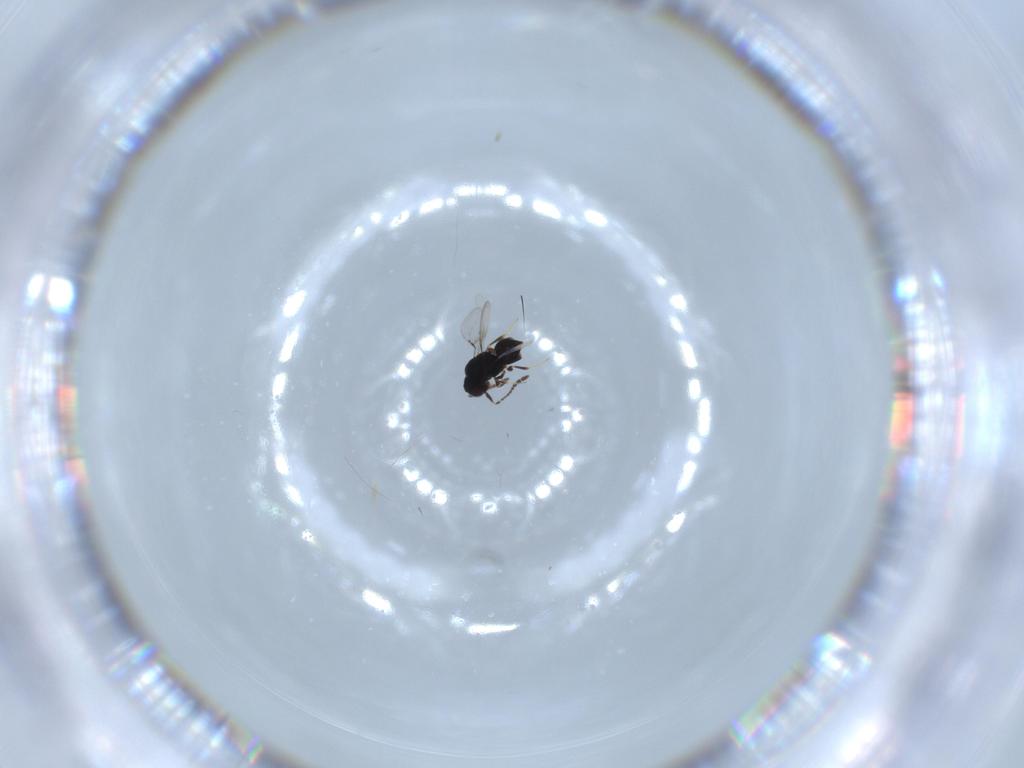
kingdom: Animalia
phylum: Arthropoda
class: Insecta
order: Hymenoptera
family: Ceraphronidae
